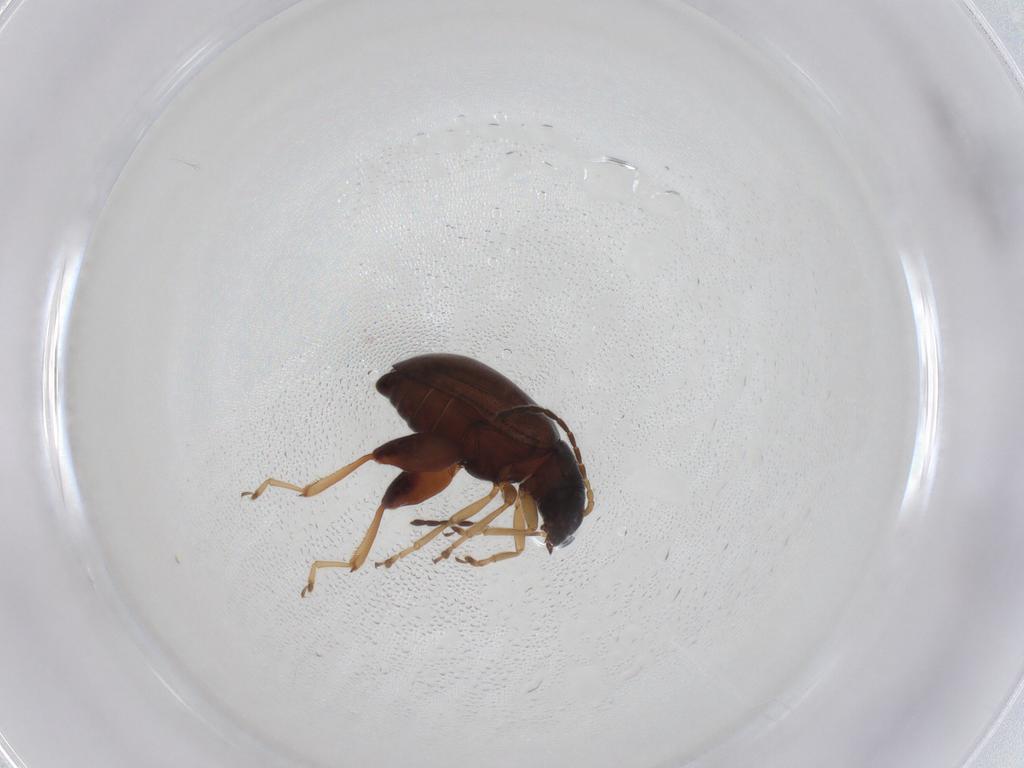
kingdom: Animalia
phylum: Arthropoda
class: Insecta
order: Coleoptera
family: Chrysomelidae
